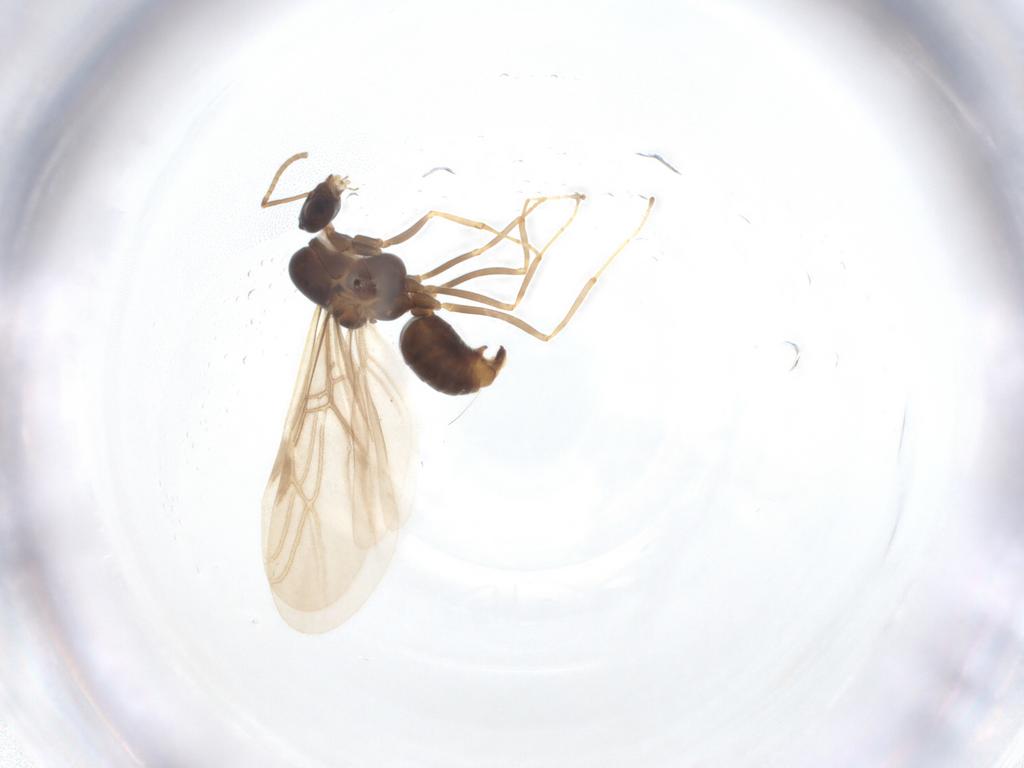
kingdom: Animalia
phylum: Arthropoda
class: Insecta
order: Hymenoptera
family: Formicidae
